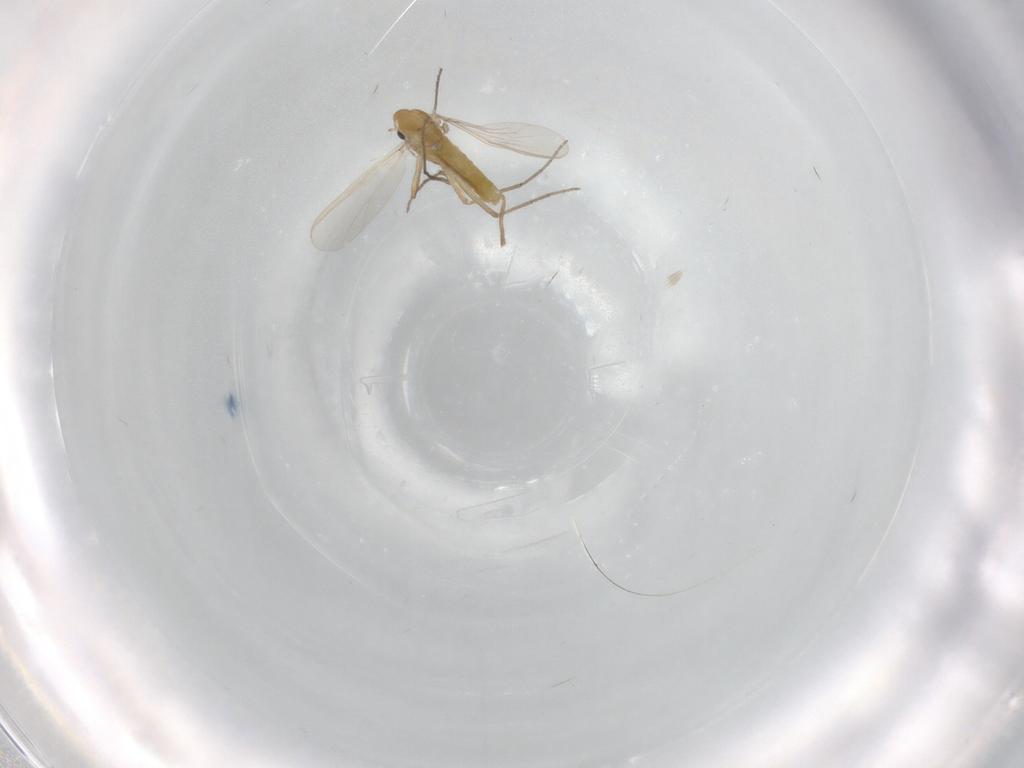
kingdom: Animalia
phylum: Arthropoda
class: Insecta
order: Diptera
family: Chironomidae
